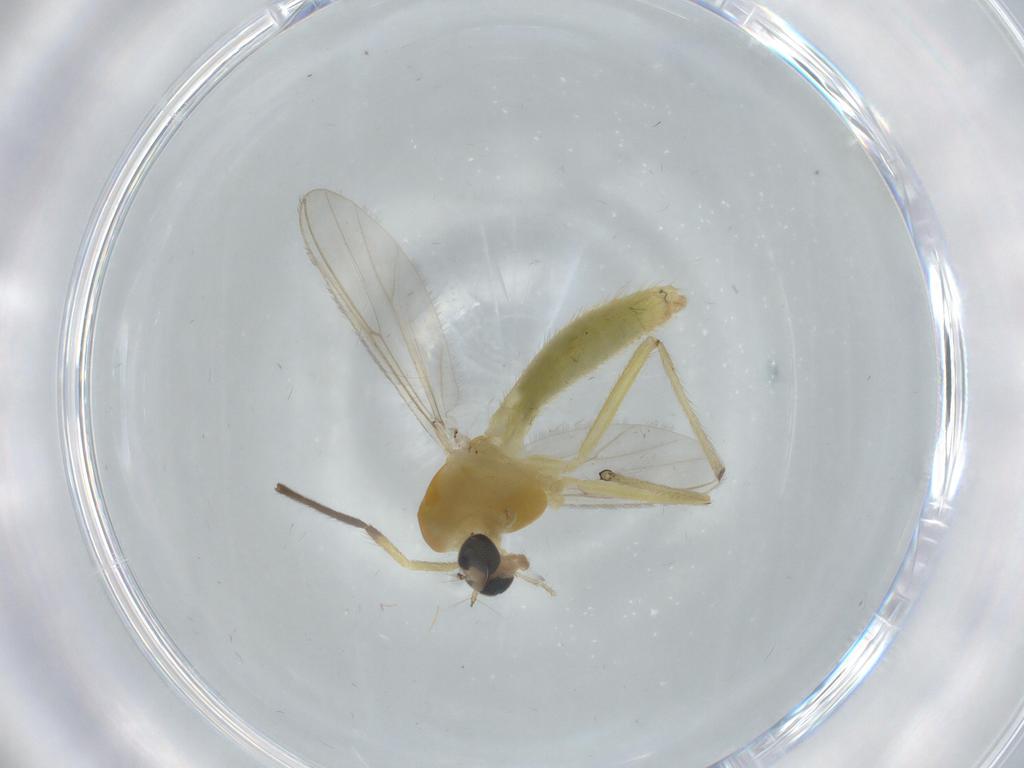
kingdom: Animalia
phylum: Arthropoda
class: Insecta
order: Diptera
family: Chironomidae
